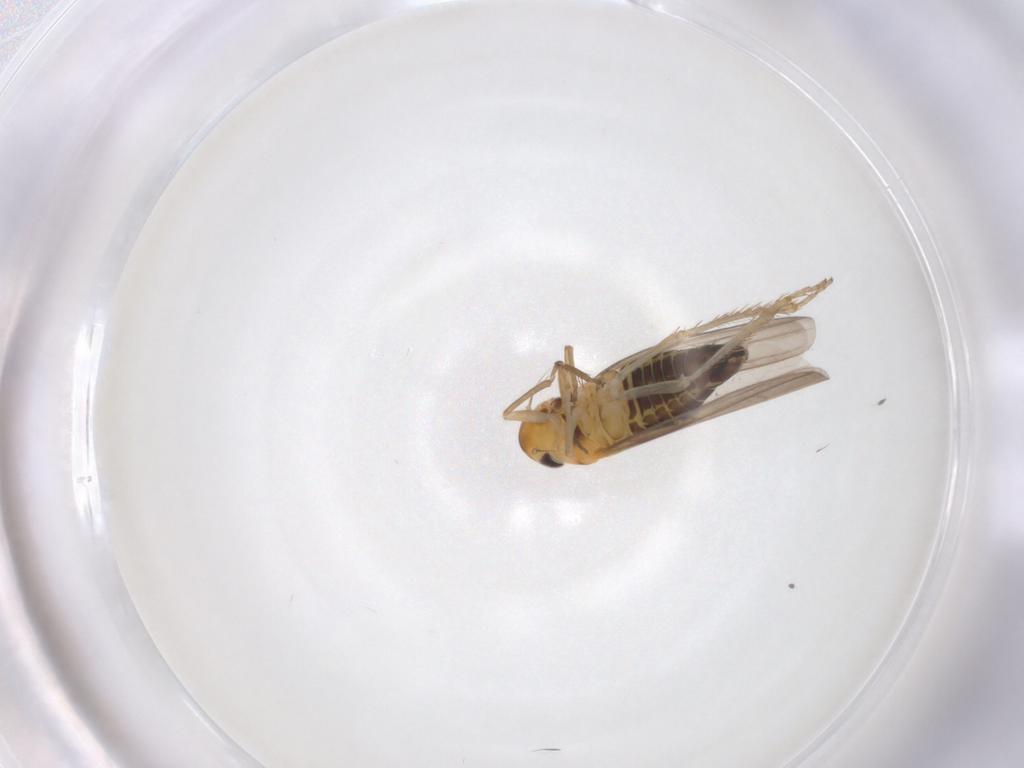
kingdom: Animalia
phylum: Arthropoda
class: Insecta
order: Hemiptera
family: Cicadellidae
